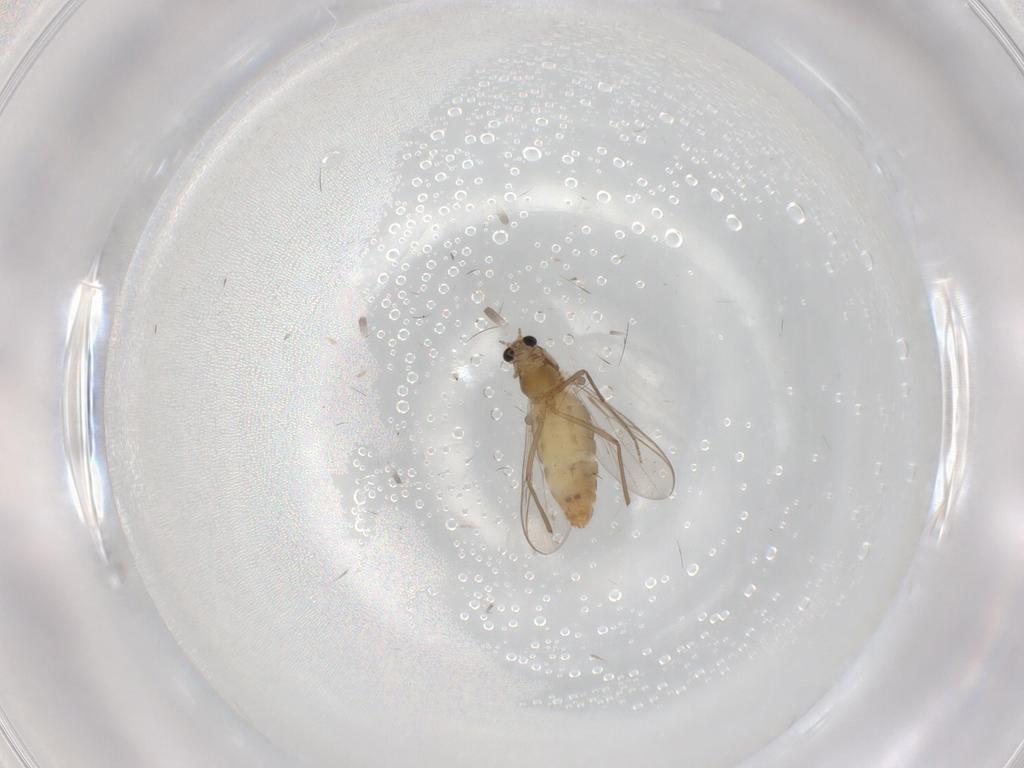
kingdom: Animalia
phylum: Arthropoda
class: Insecta
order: Diptera
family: Chironomidae
